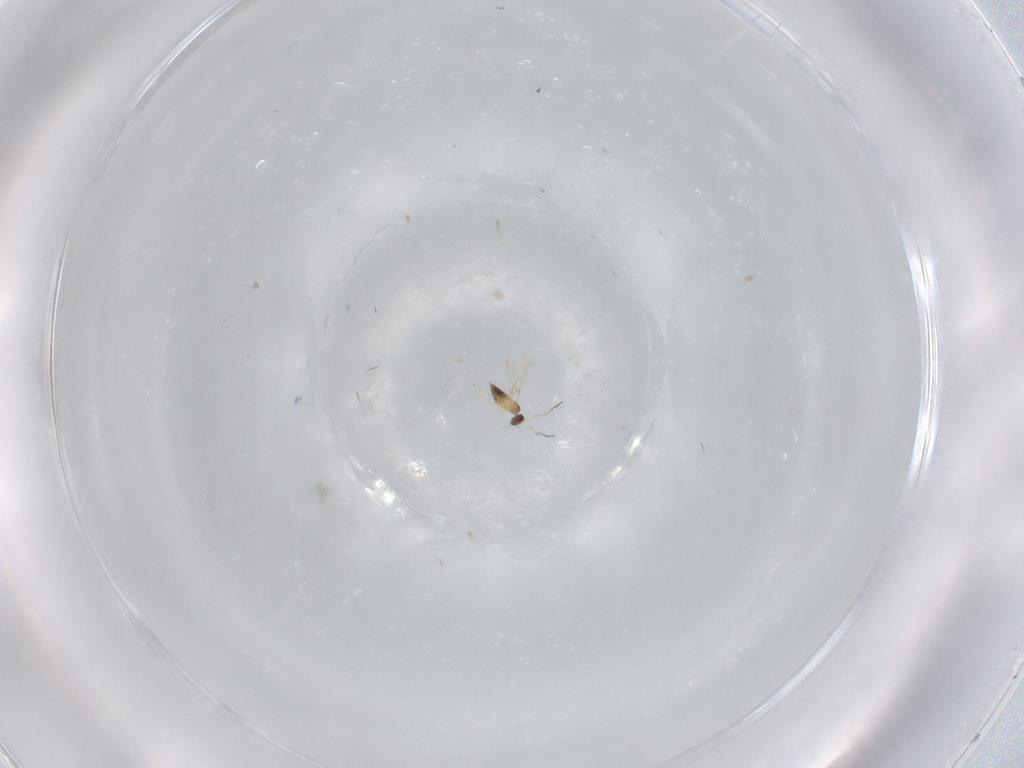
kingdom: Animalia
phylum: Arthropoda
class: Insecta
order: Hymenoptera
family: Mymaridae
